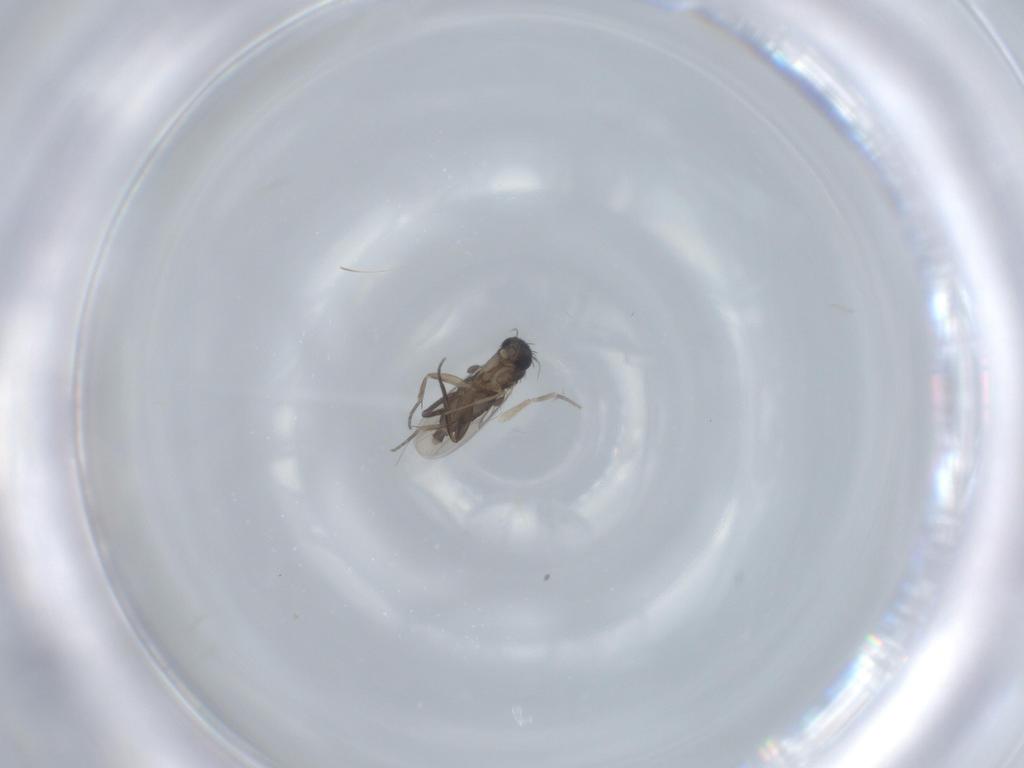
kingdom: Animalia
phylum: Arthropoda
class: Insecta
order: Diptera
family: Phoridae
